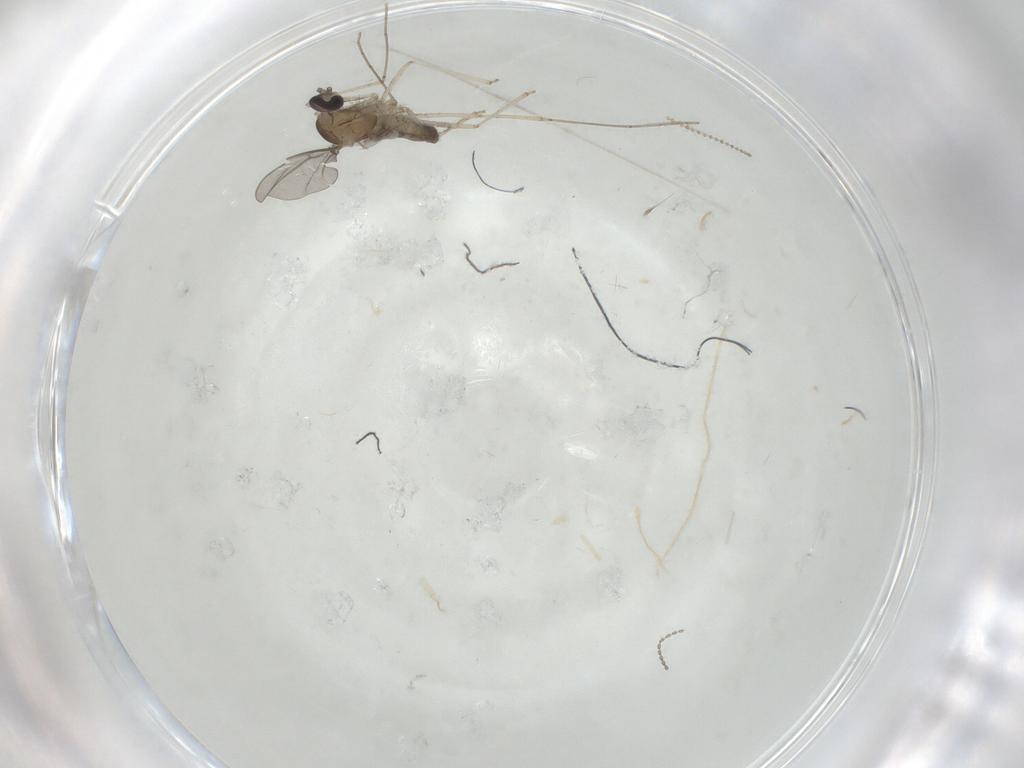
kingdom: Animalia
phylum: Arthropoda
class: Insecta
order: Diptera
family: Cecidomyiidae
